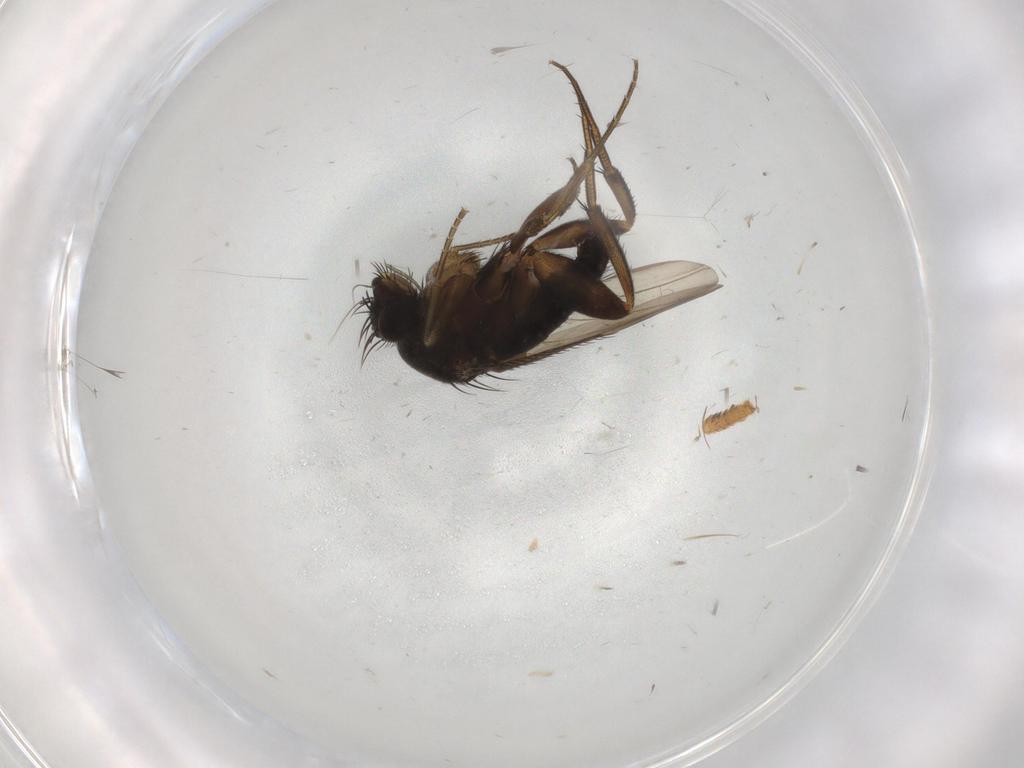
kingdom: Animalia
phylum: Arthropoda
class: Insecta
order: Diptera
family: Phoridae
